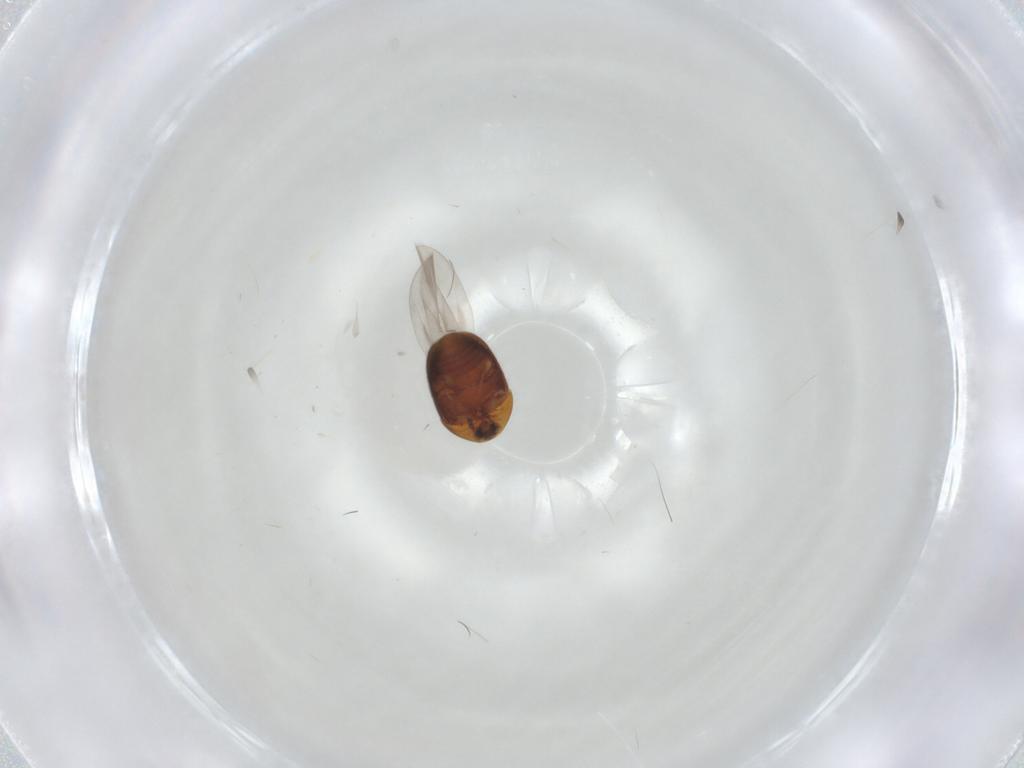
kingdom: Animalia
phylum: Arthropoda
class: Insecta
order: Coleoptera
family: Corylophidae
